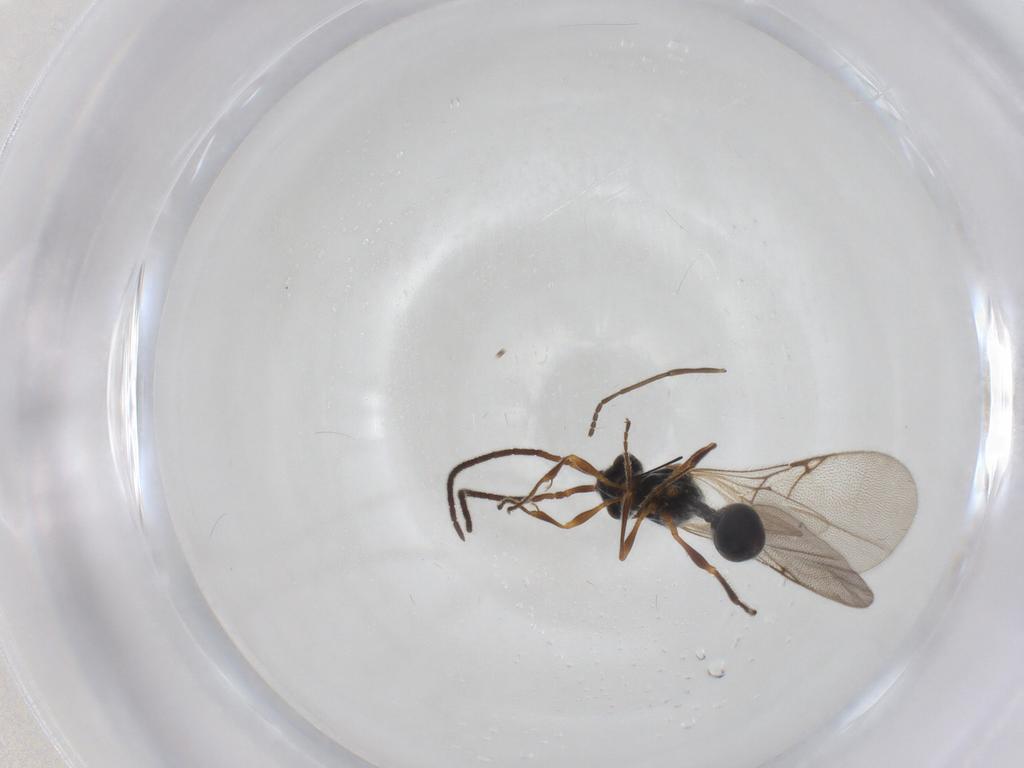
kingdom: Animalia
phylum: Arthropoda
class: Insecta
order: Hymenoptera
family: Diapriidae
